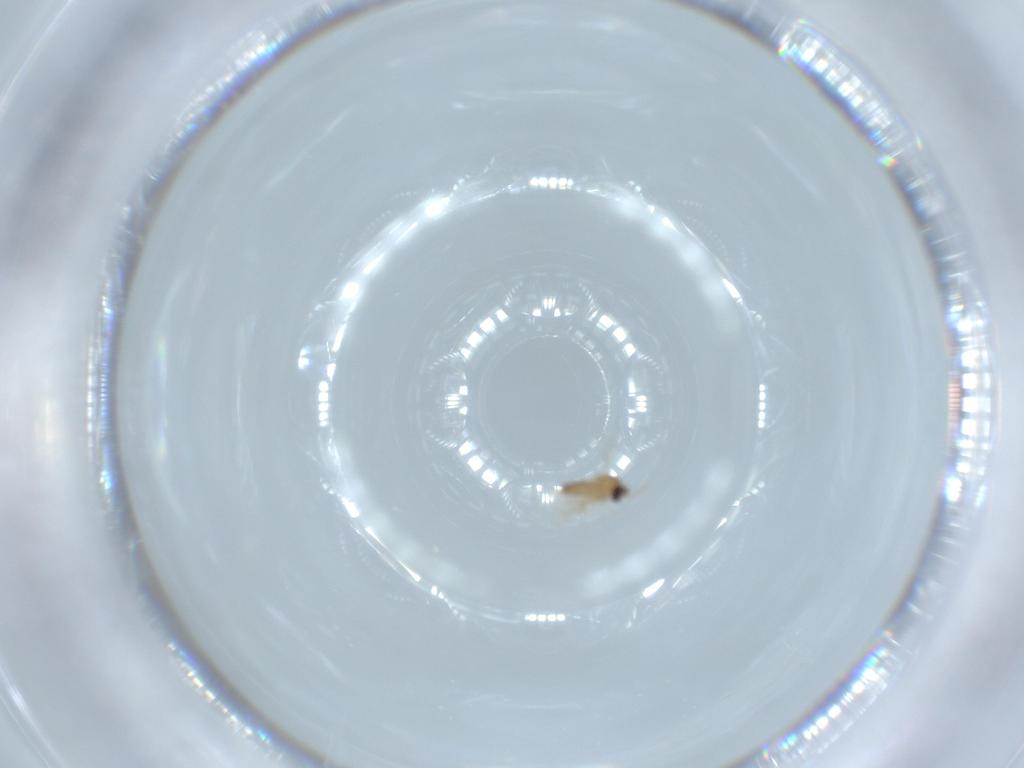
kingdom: Animalia
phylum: Arthropoda
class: Insecta
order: Diptera
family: Cecidomyiidae
